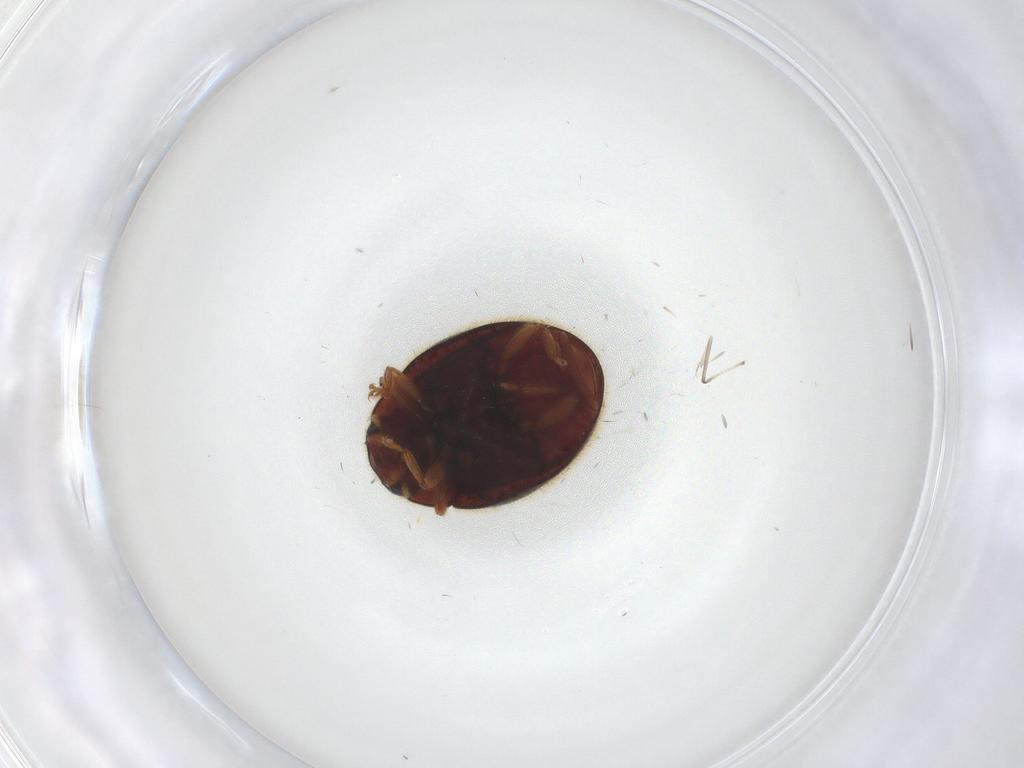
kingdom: Animalia
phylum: Arthropoda
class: Insecta
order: Coleoptera
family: Coccinellidae
